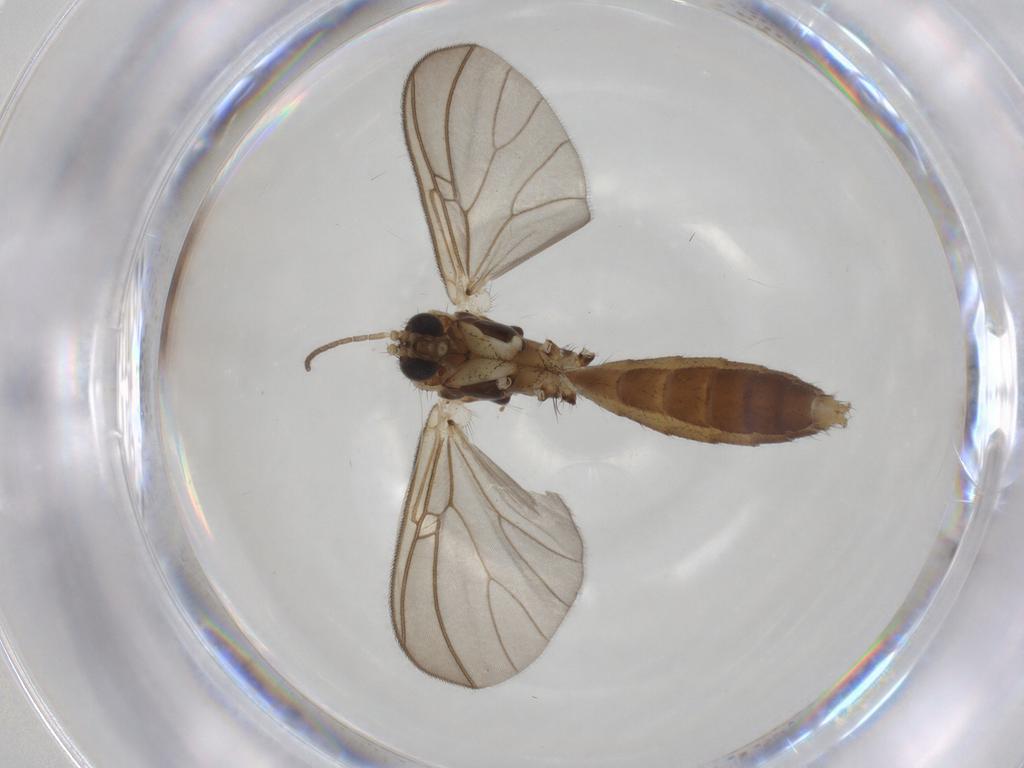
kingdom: Animalia
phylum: Arthropoda
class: Insecta
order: Diptera
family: Mycetophilidae
